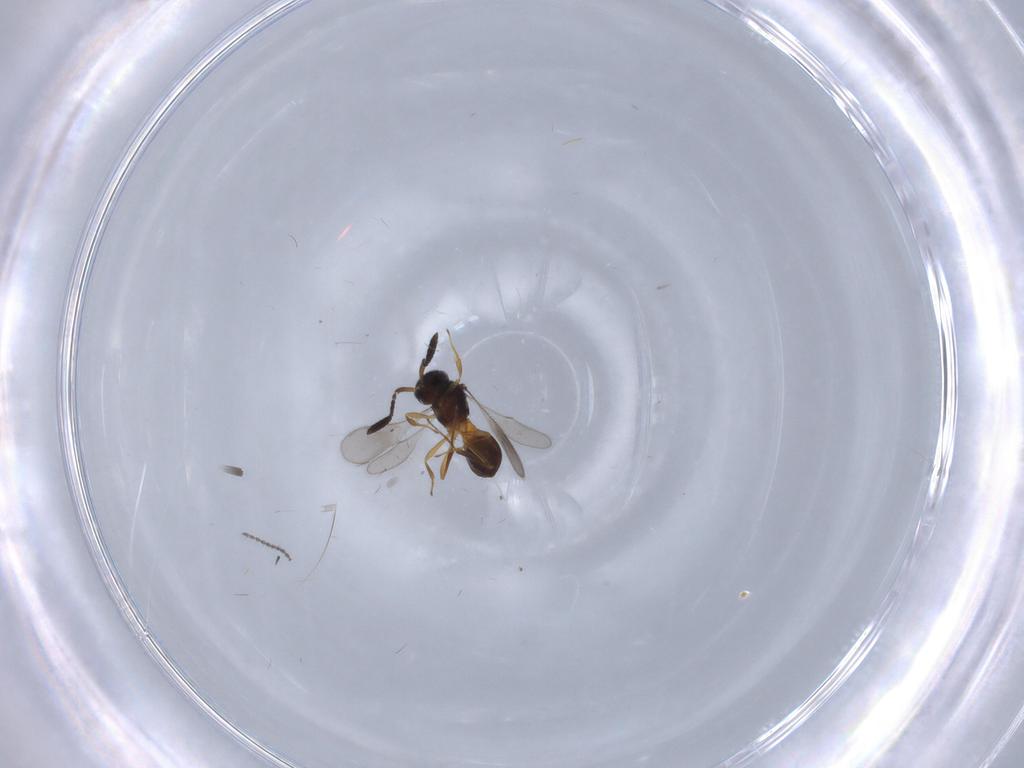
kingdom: Animalia
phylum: Arthropoda
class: Insecta
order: Hymenoptera
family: Scelionidae
